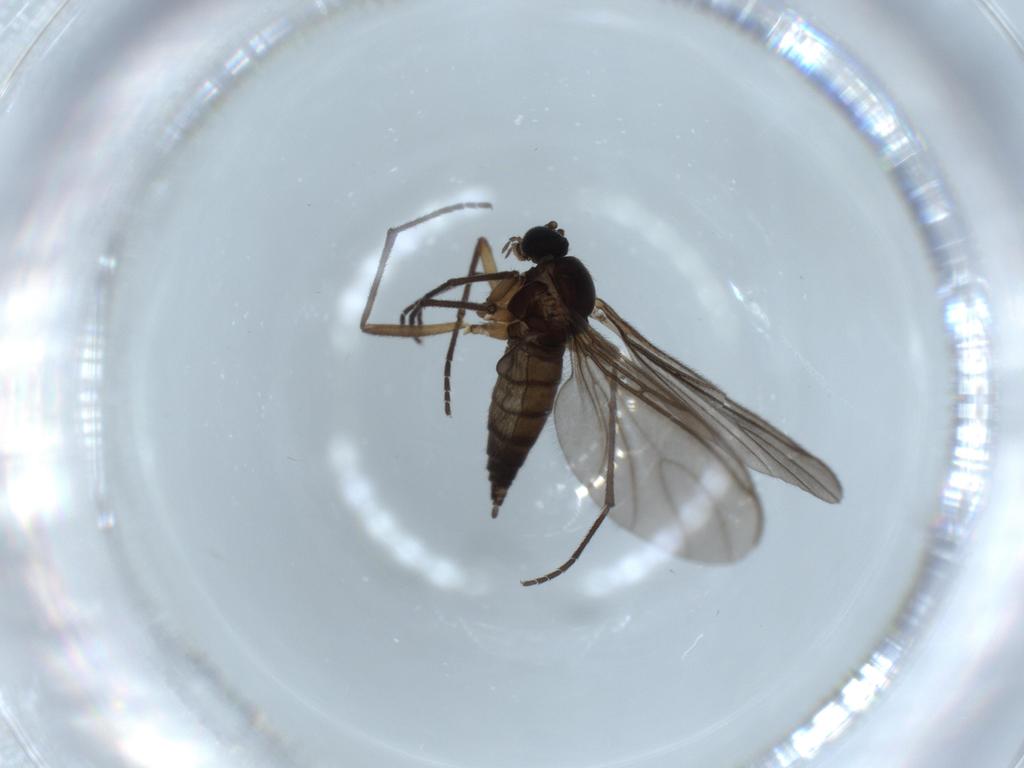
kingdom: Animalia
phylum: Arthropoda
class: Insecta
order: Diptera
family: Sciaridae
